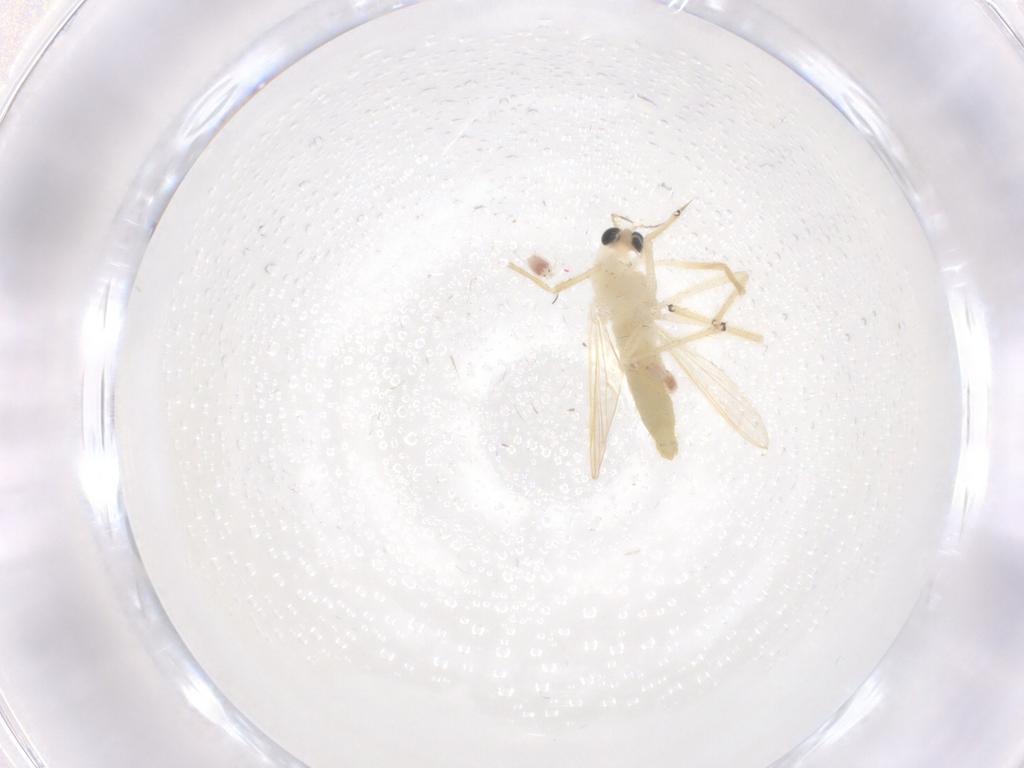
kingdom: Animalia
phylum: Arthropoda
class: Insecta
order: Diptera
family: Chironomidae
